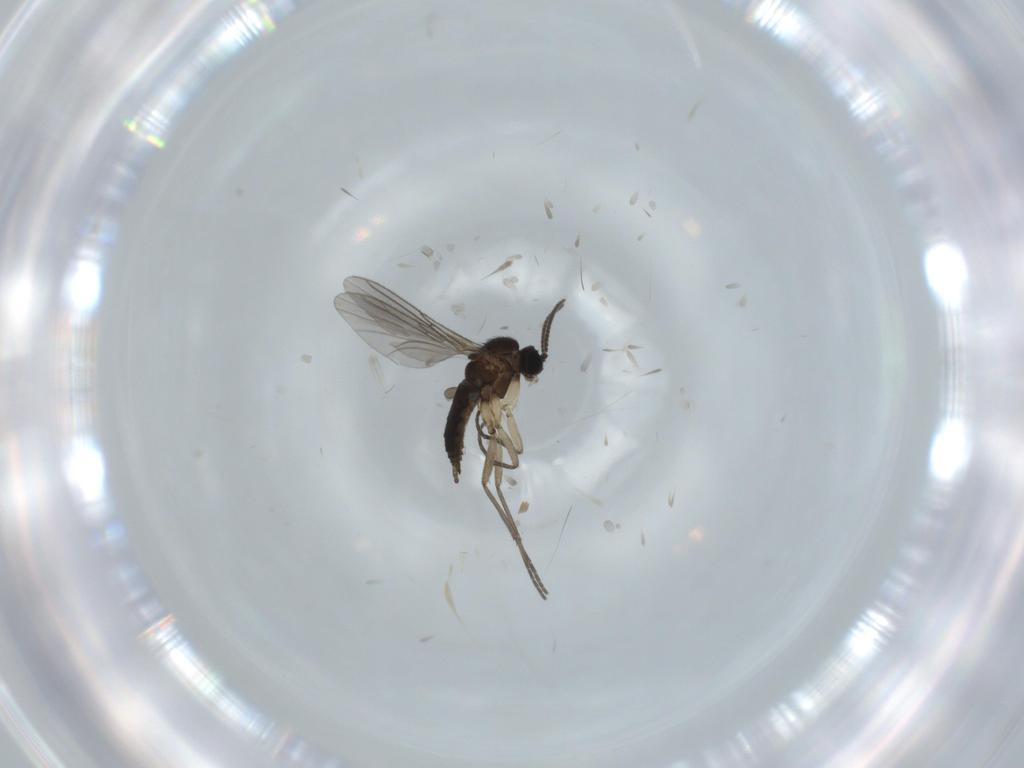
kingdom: Animalia
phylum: Arthropoda
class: Insecta
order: Diptera
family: Sciaridae
